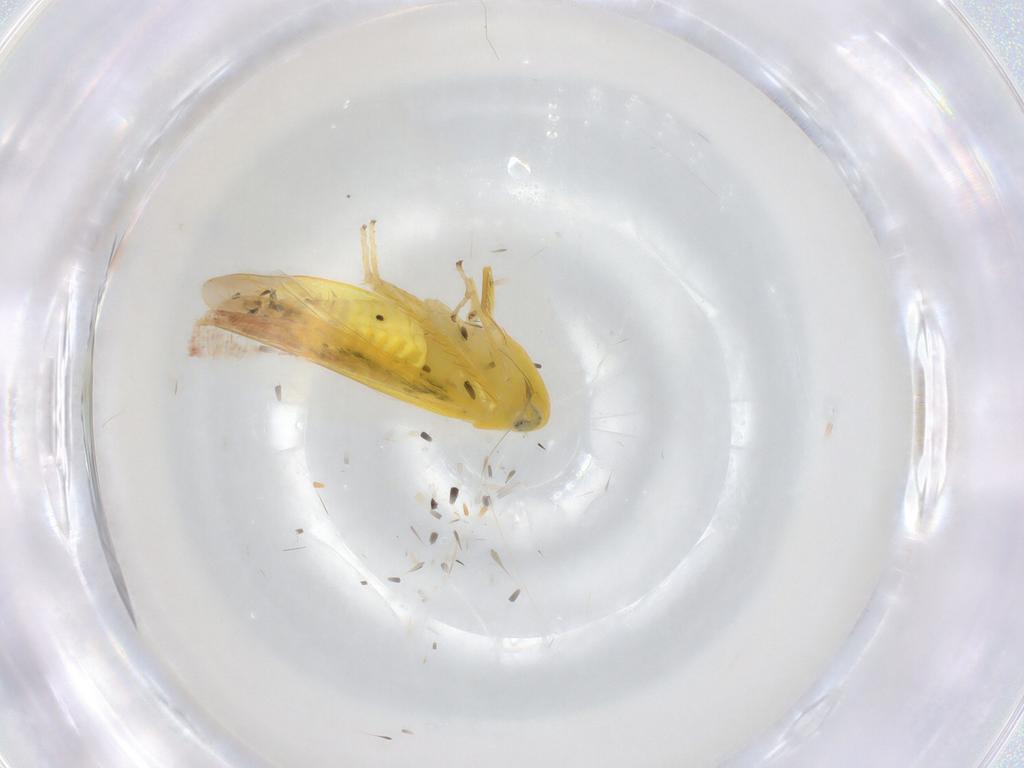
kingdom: Animalia
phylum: Arthropoda
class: Insecta
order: Hemiptera
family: Cicadellidae
